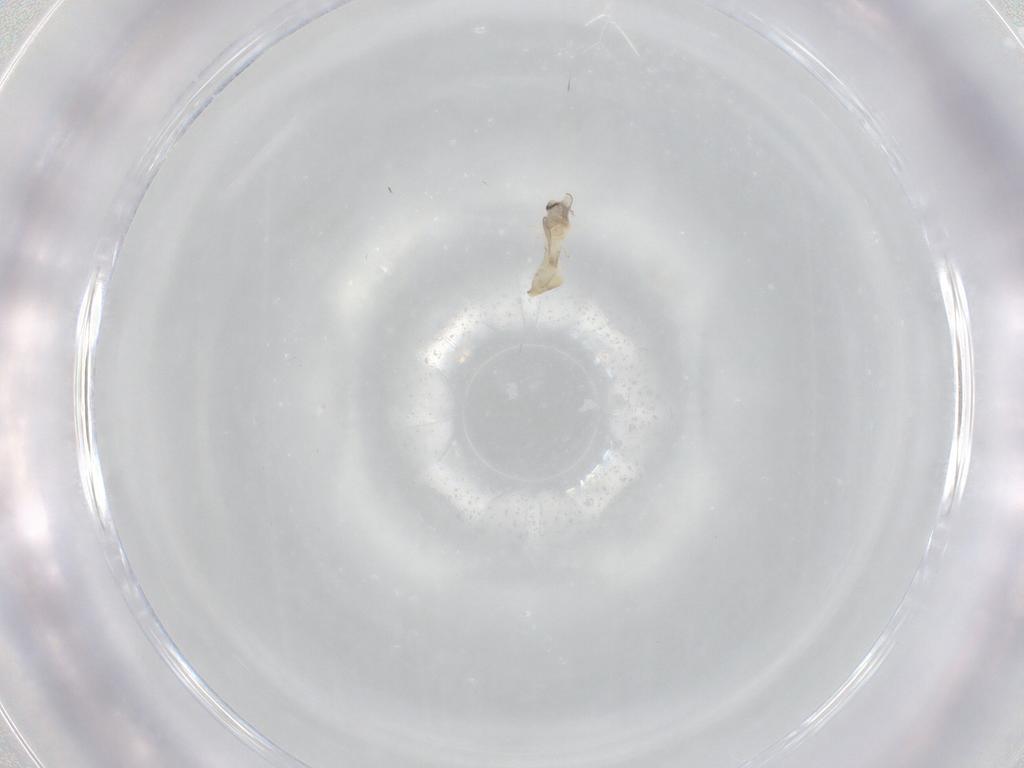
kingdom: Animalia
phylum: Arthropoda
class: Insecta
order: Diptera
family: Cecidomyiidae
